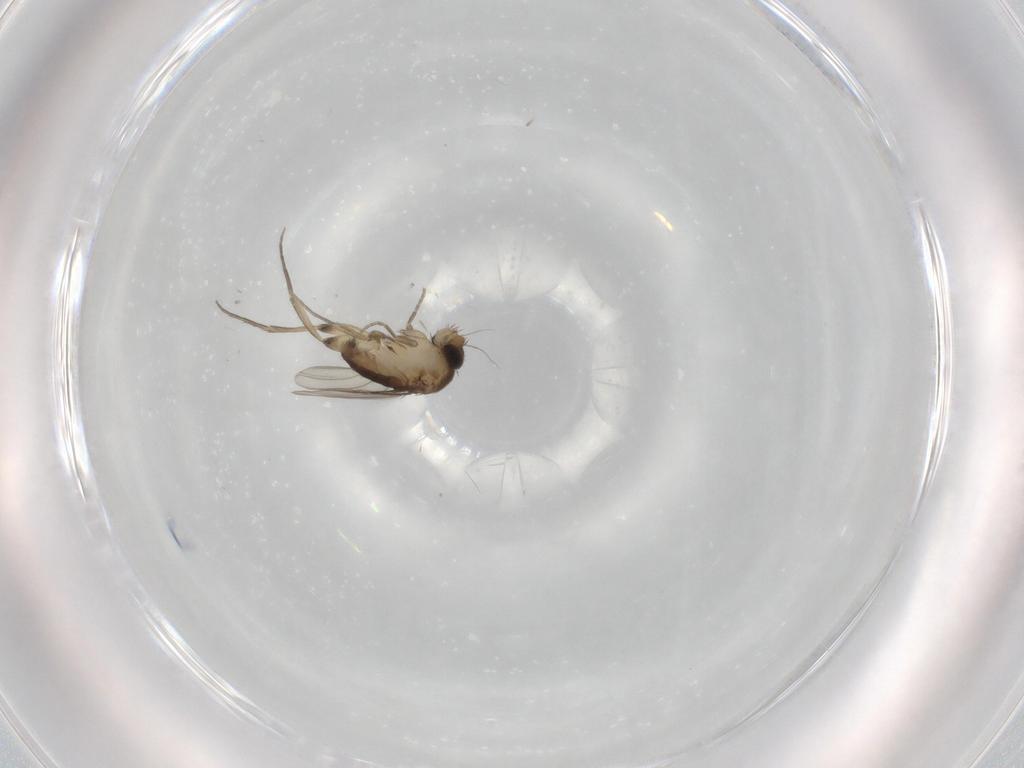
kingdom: Animalia
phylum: Arthropoda
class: Insecta
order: Diptera
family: Phoridae
